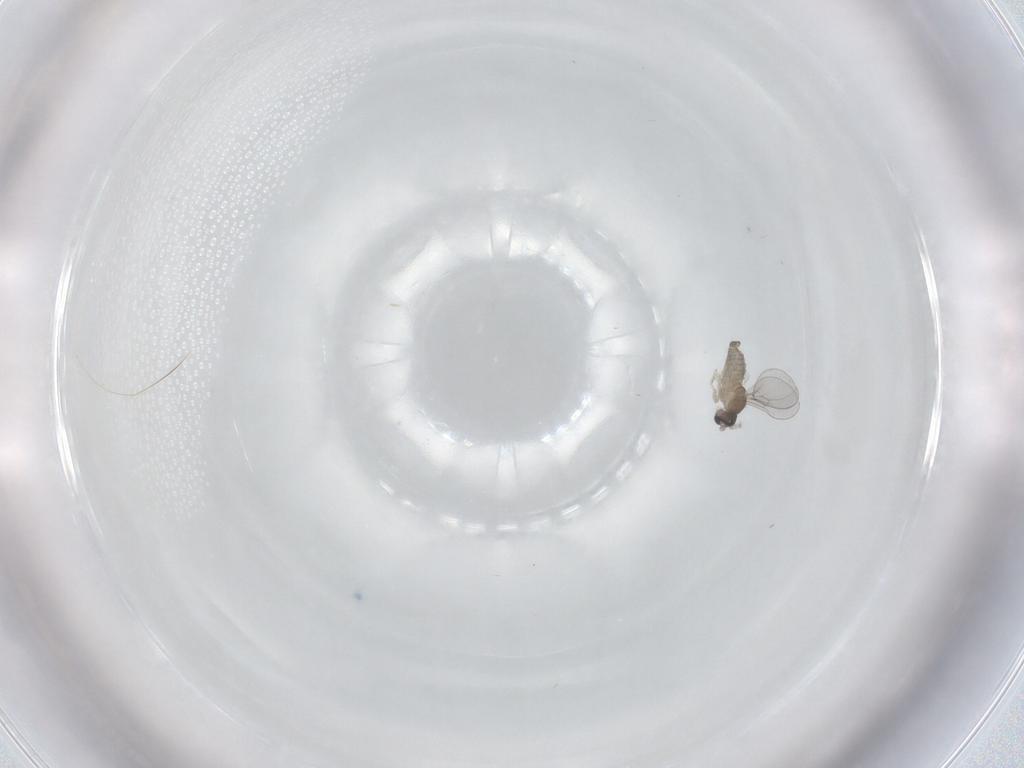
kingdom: Animalia
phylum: Arthropoda
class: Insecta
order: Diptera
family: Cecidomyiidae
